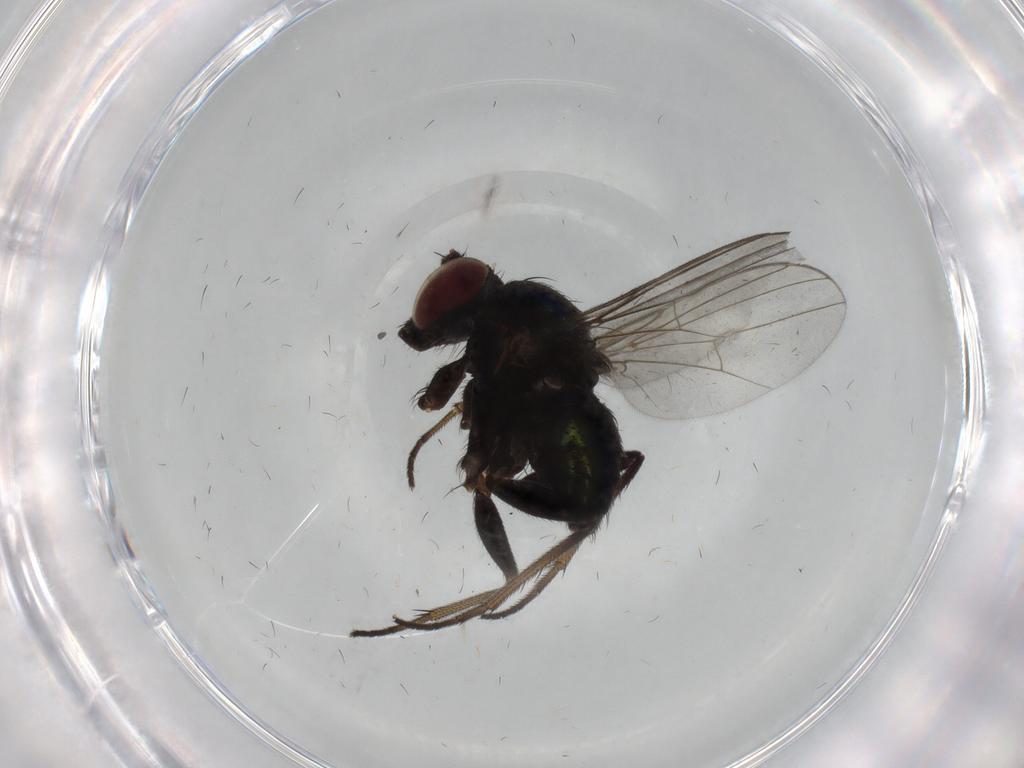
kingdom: Animalia
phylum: Arthropoda
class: Insecta
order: Diptera
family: Dolichopodidae
